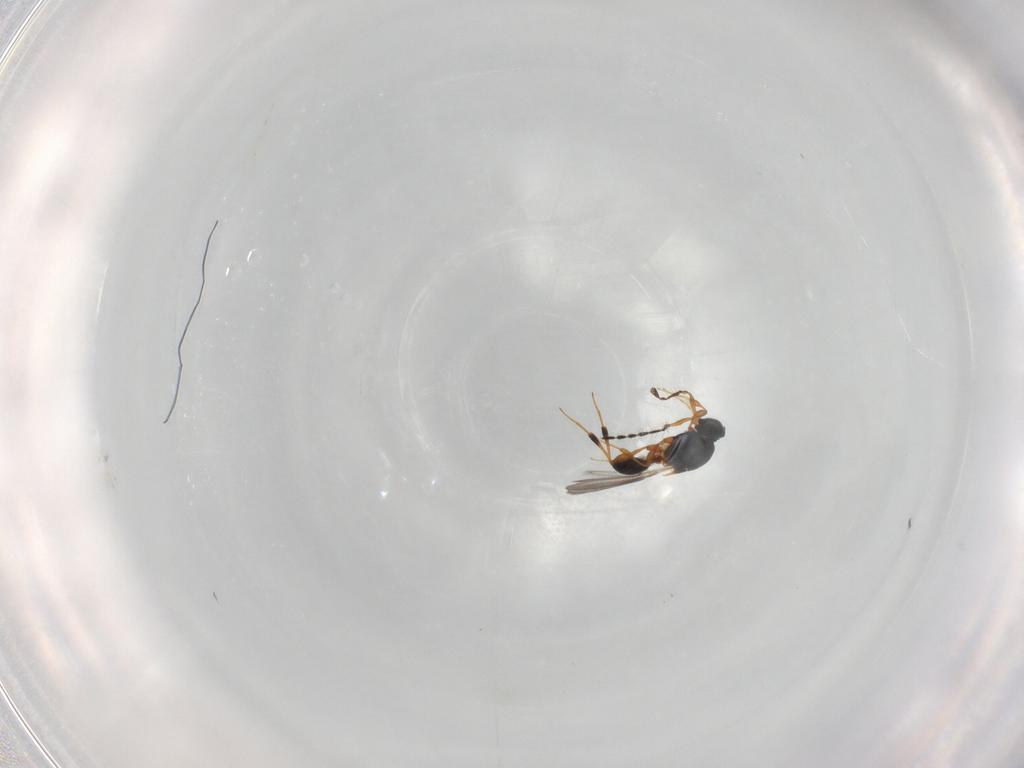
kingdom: Animalia
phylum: Arthropoda
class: Insecta
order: Hymenoptera
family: Platygastridae
